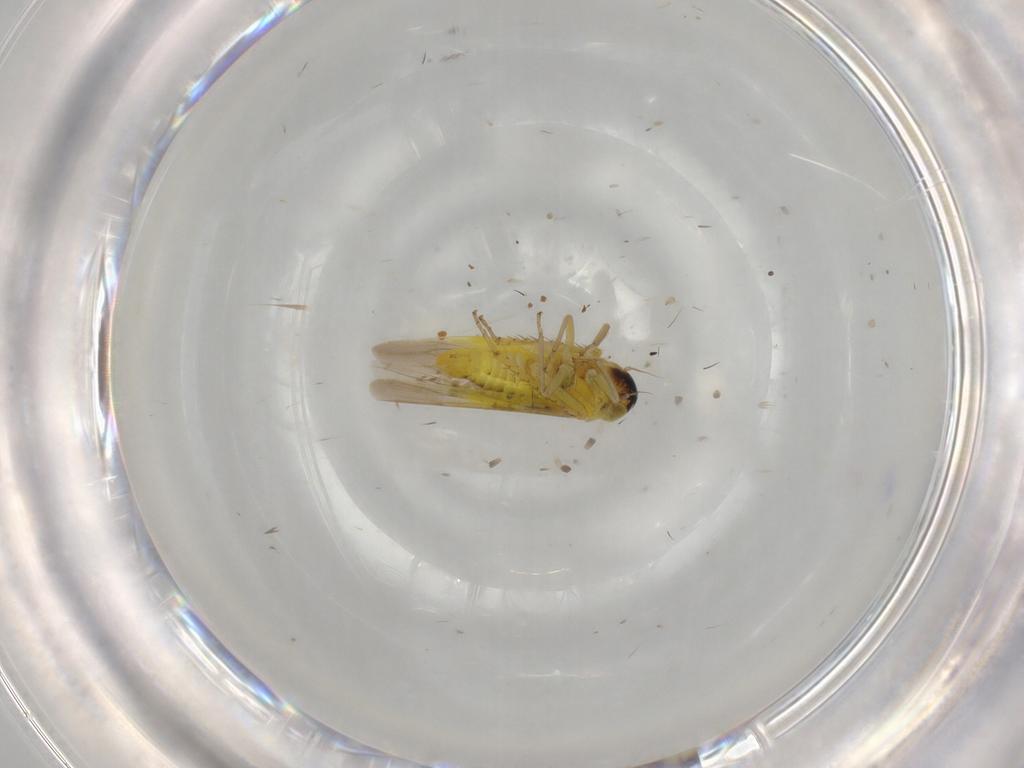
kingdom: Animalia
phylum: Arthropoda
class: Insecta
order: Hemiptera
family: Cicadellidae
